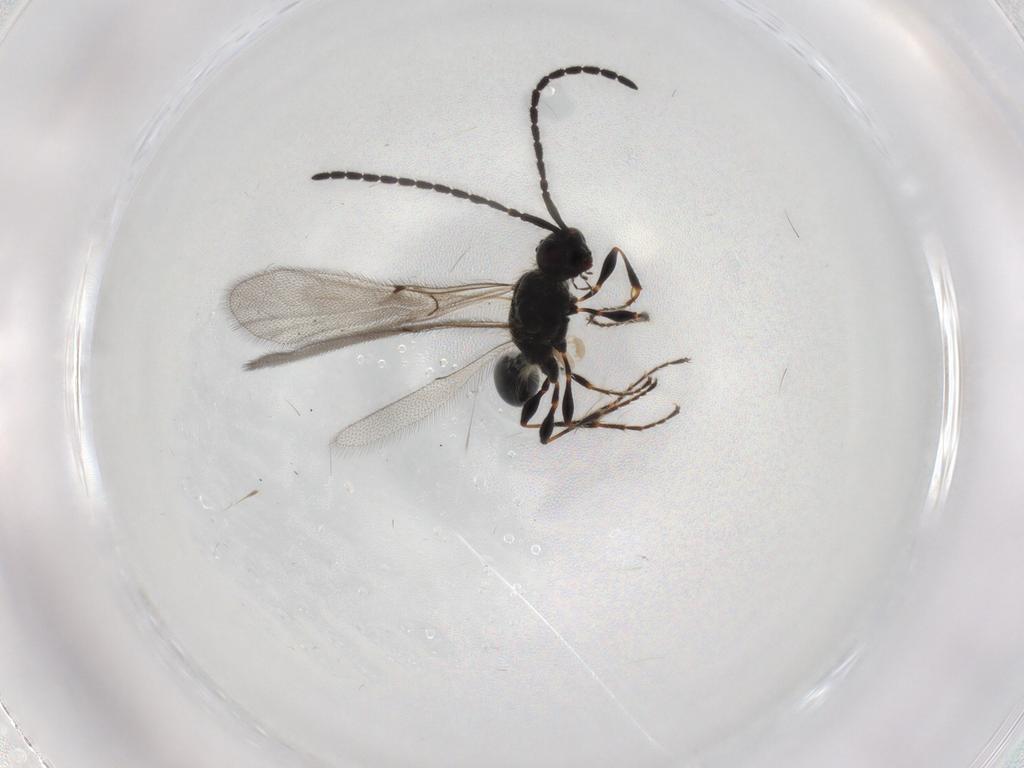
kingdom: Animalia
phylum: Arthropoda
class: Insecta
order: Hymenoptera
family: Diapriidae
